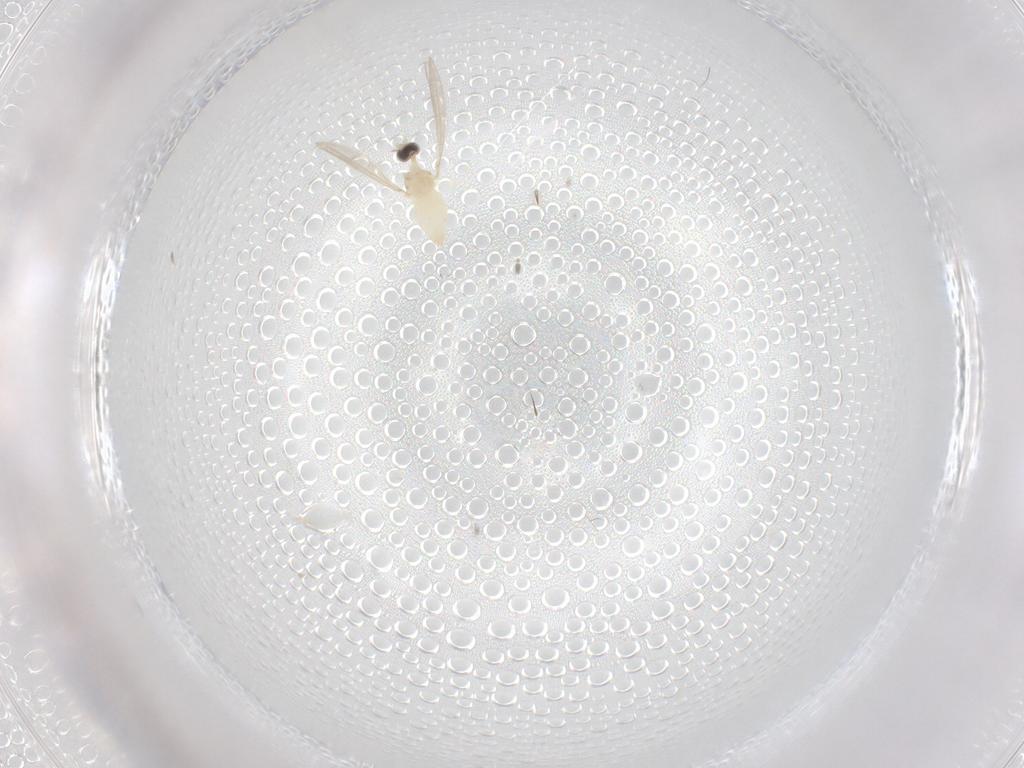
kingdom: Animalia
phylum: Arthropoda
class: Insecta
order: Diptera
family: Cecidomyiidae
